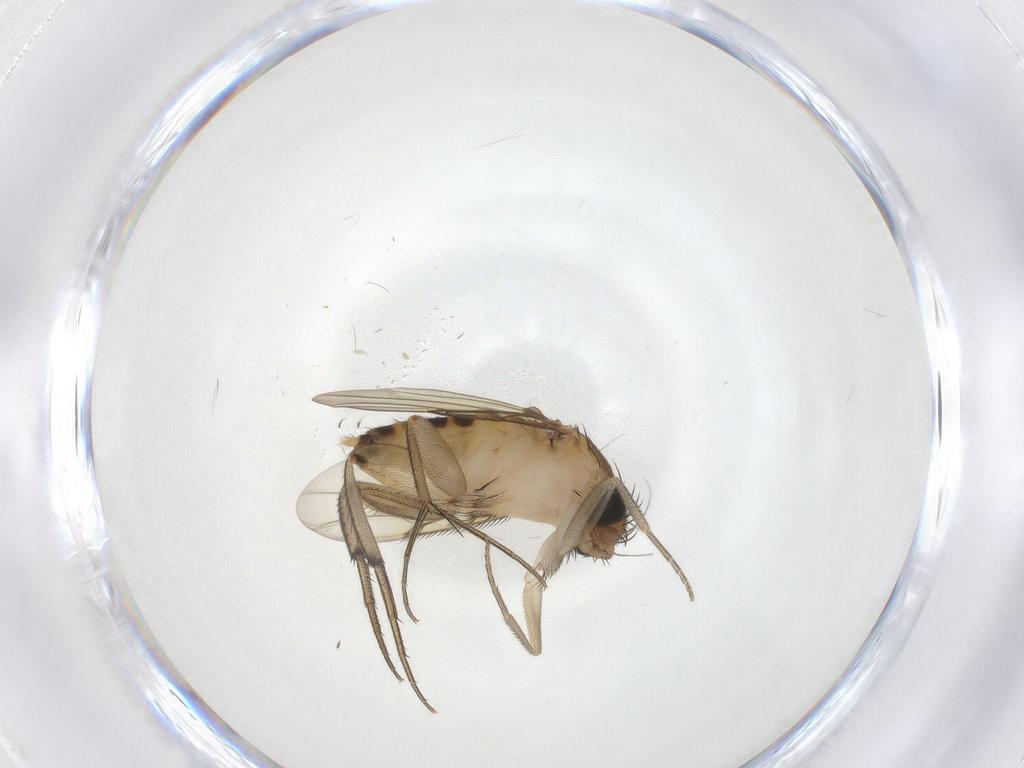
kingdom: Animalia
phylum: Arthropoda
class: Insecta
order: Diptera
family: Phoridae
